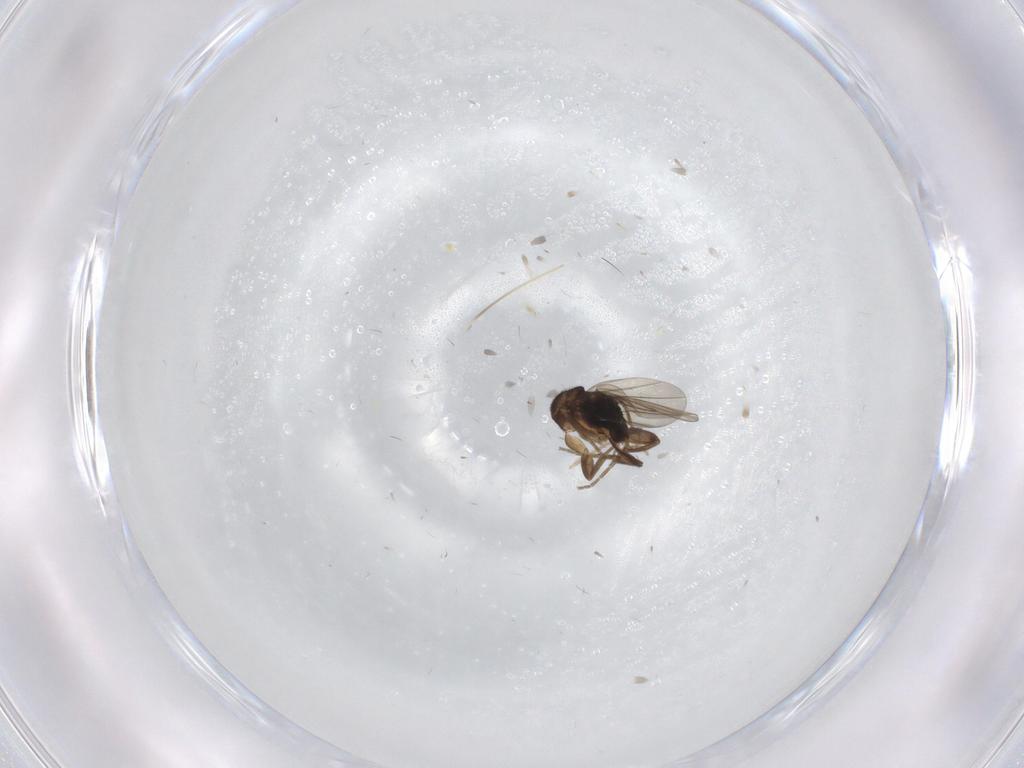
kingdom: Animalia
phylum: Arthropoda
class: Insecta
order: Diptera
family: Phoridae
